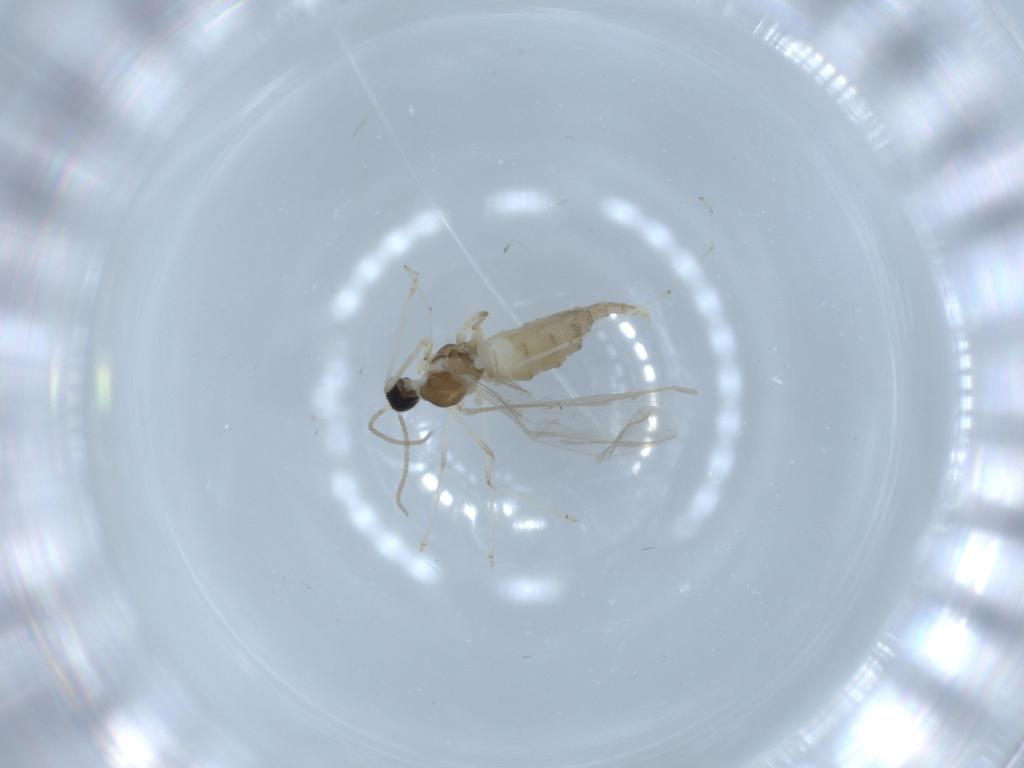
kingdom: Animalia
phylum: Arthropoda
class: Insecta
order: Diptera
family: Cecidomyiidae
